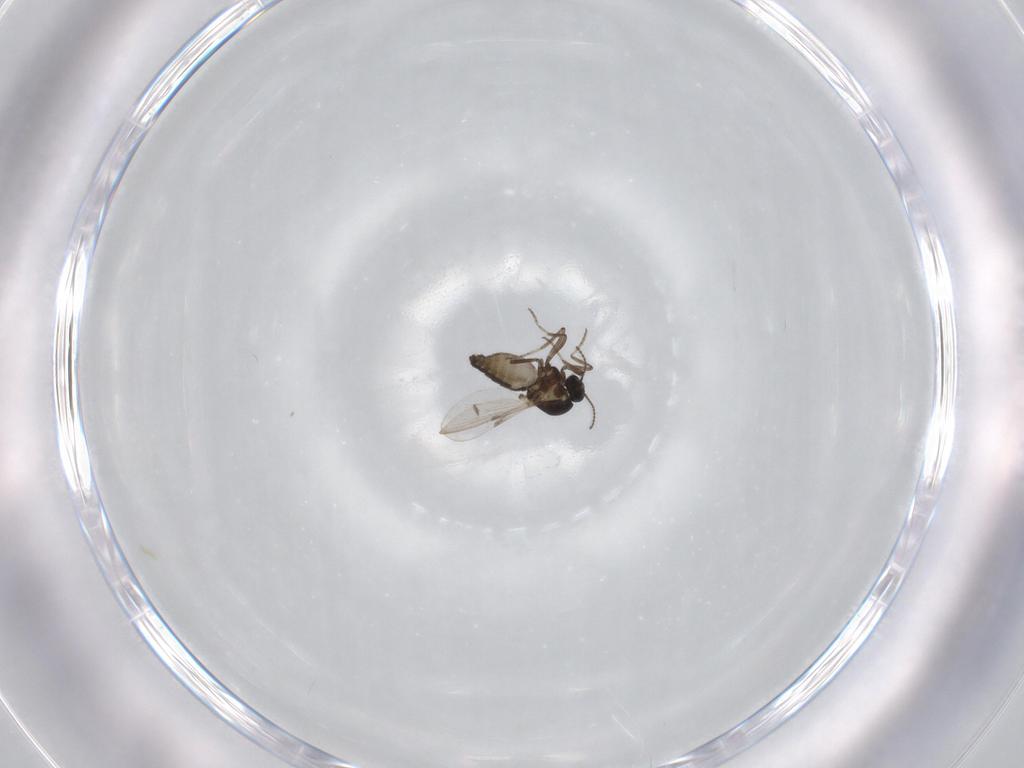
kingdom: Animalia
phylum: Arthropoda
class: Insecta
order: Diptera
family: Ceratopogonidae
